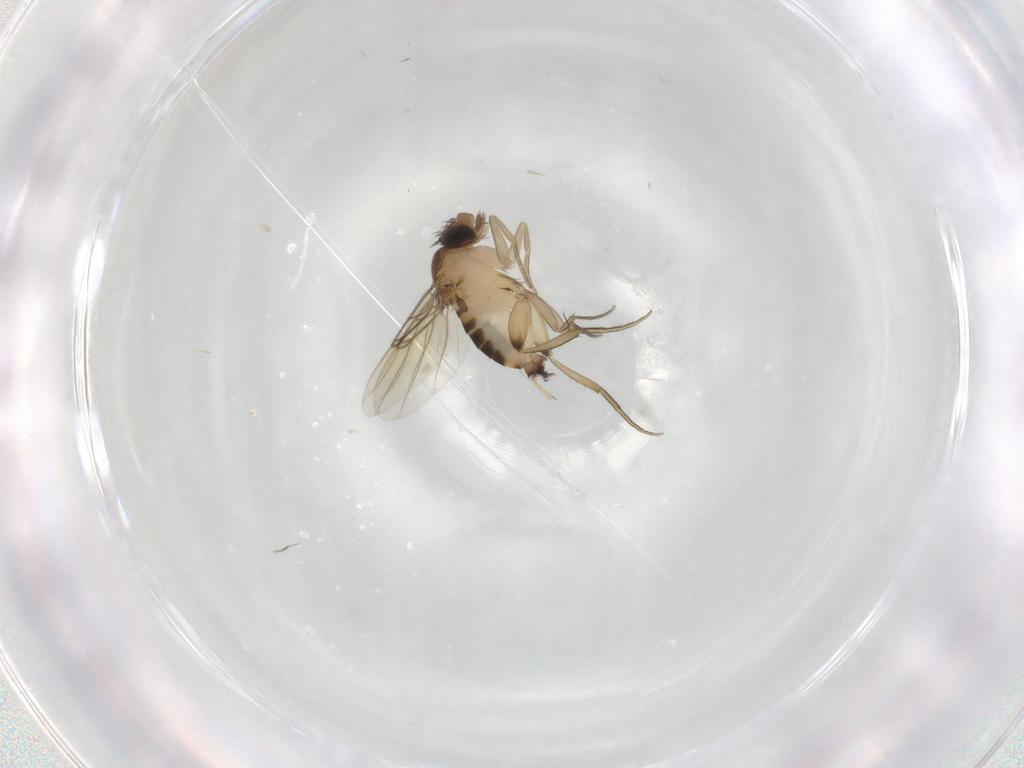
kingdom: Animalia
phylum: Arthropoda
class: Insecta
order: Diptera
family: Phoridae
